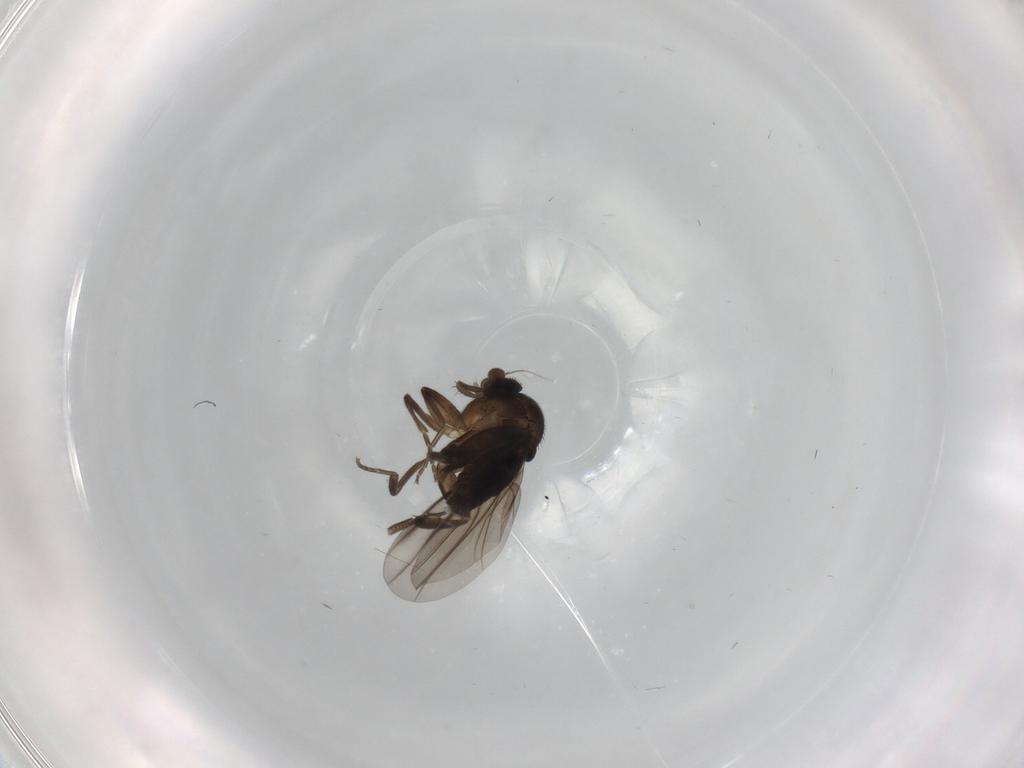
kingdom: Animalia
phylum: Arthropoda
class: Insecta
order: Diptera
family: Phoridae
